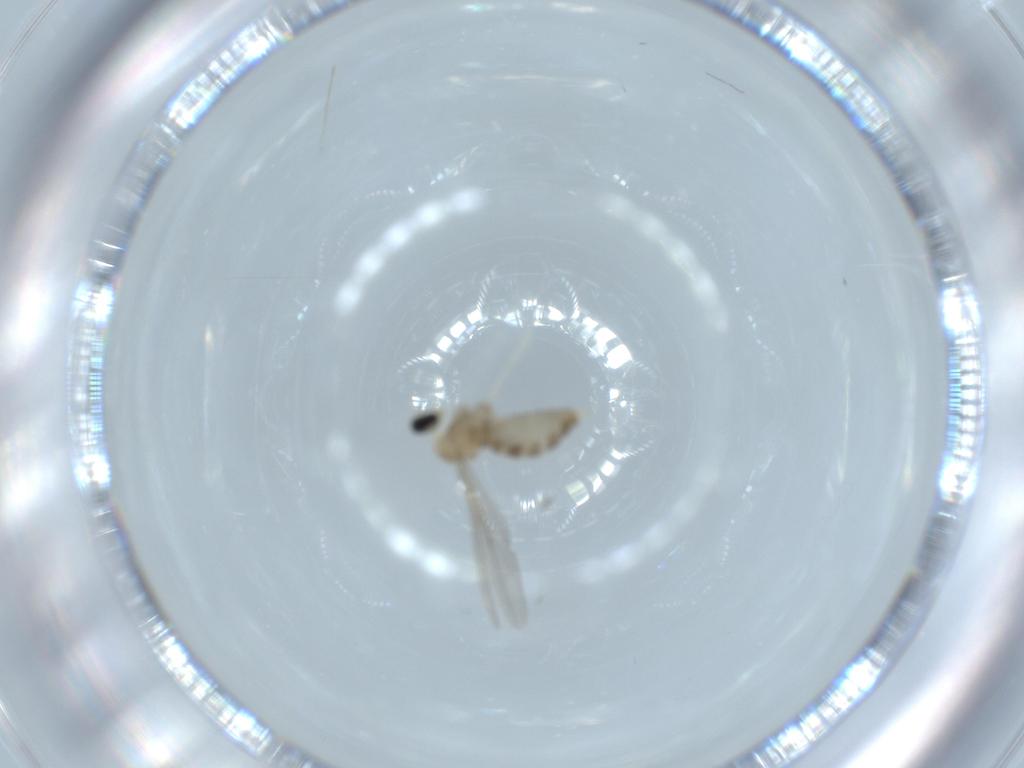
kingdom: Animalia
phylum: Arthropoda
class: Insecta
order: Diptera
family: Cecidomyiidae
